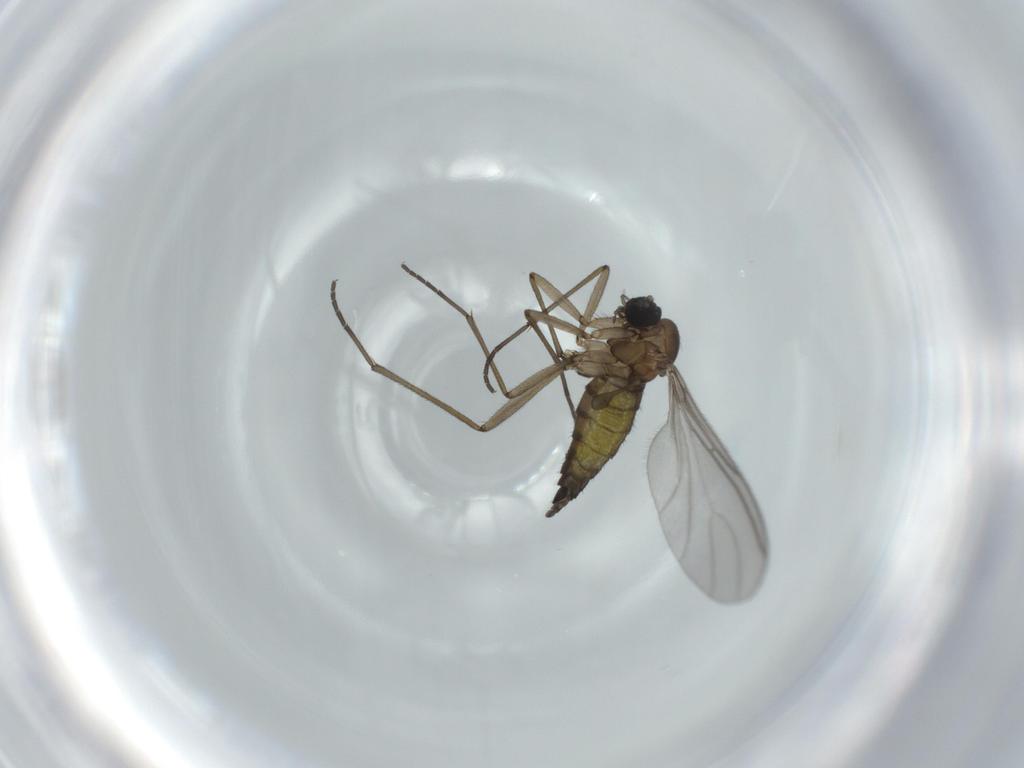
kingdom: Animalia
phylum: Arthropoda
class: Insecta
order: Diptera
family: Sciaridae
